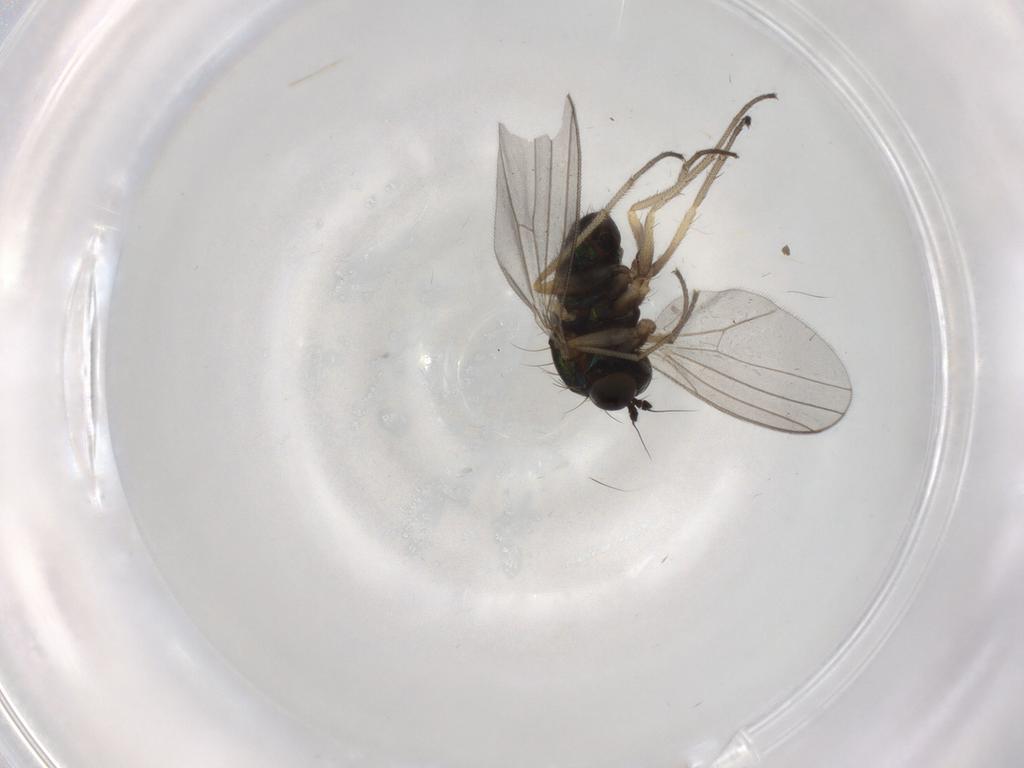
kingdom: Animalia
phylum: Arthropoda
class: Insecta
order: Diptera
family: Dolichopodidae
